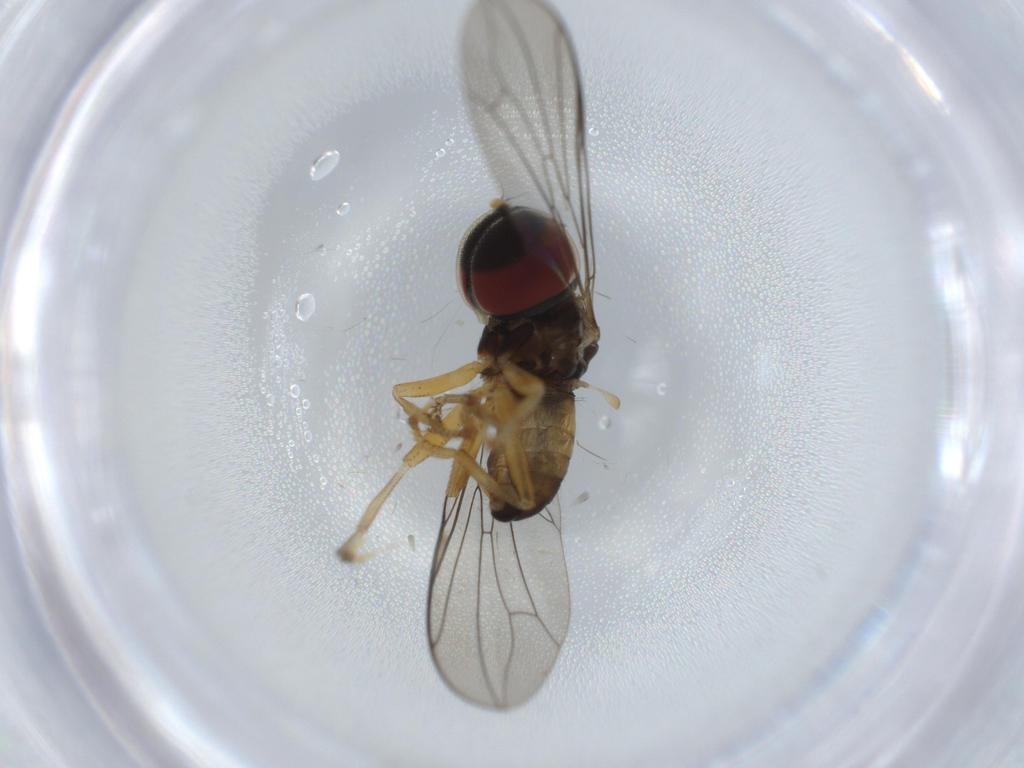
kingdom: Animalia
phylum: Arthropoda
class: Insecta
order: Diptera
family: Pipunculidae
